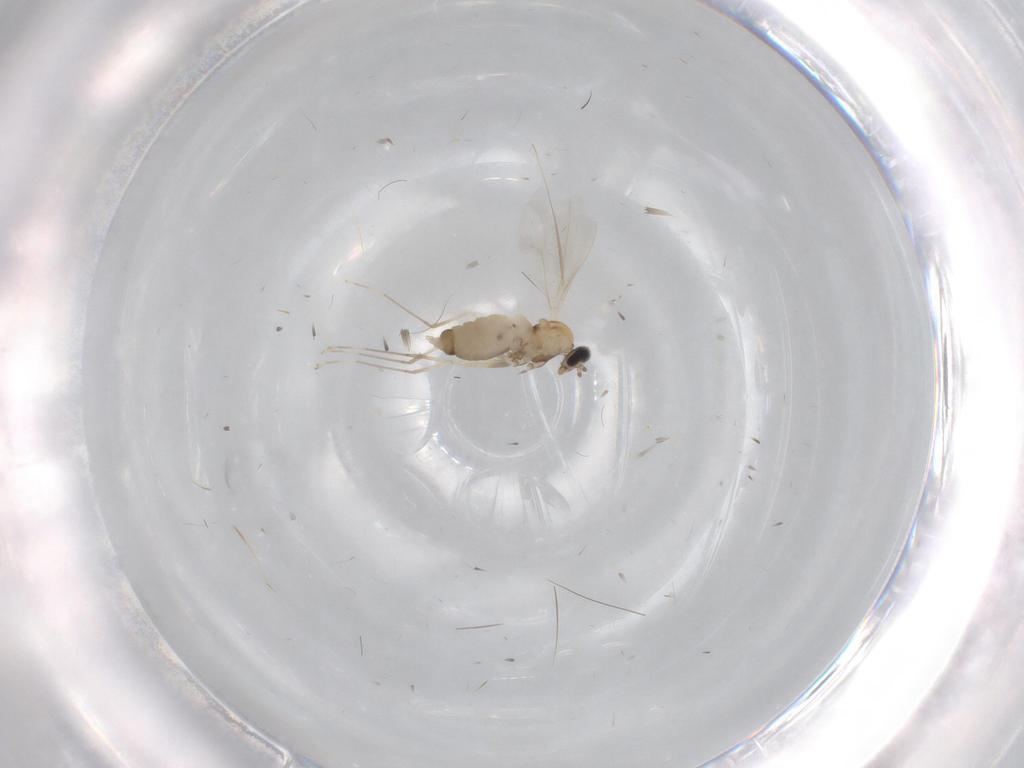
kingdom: Animalia
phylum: Arthropoda
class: Insecta
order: Diptera
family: Cecidomyiidae
